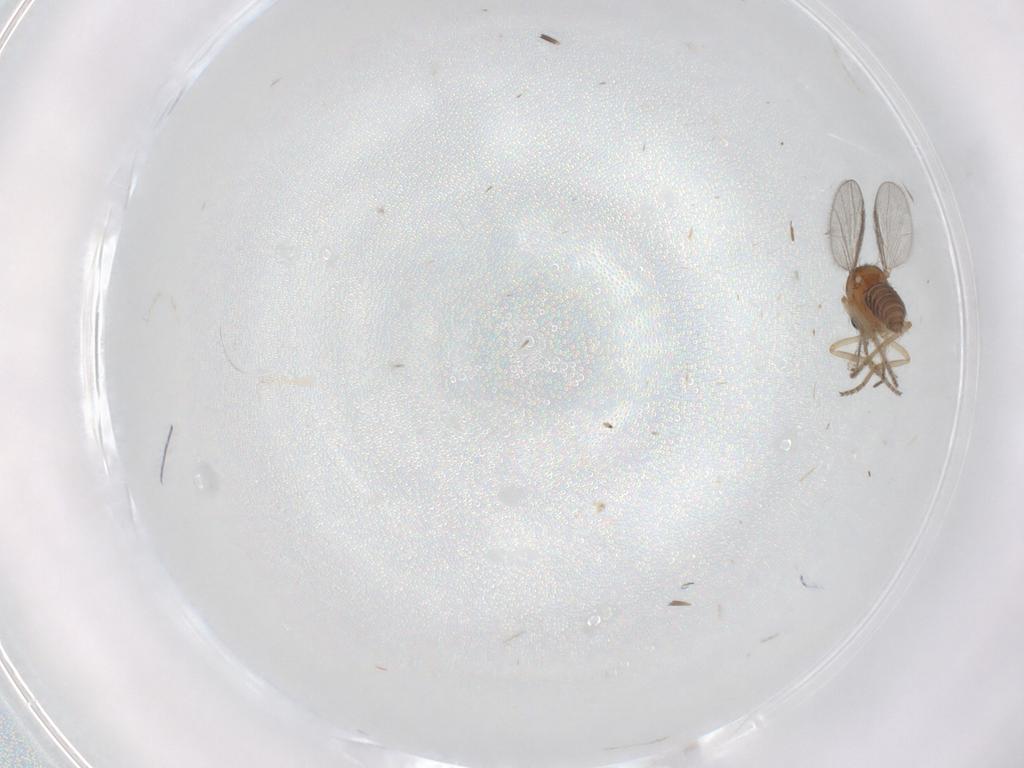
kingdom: Animalia
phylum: Arthropoda
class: Insecta
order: Diptera
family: Ceratopogonidae
